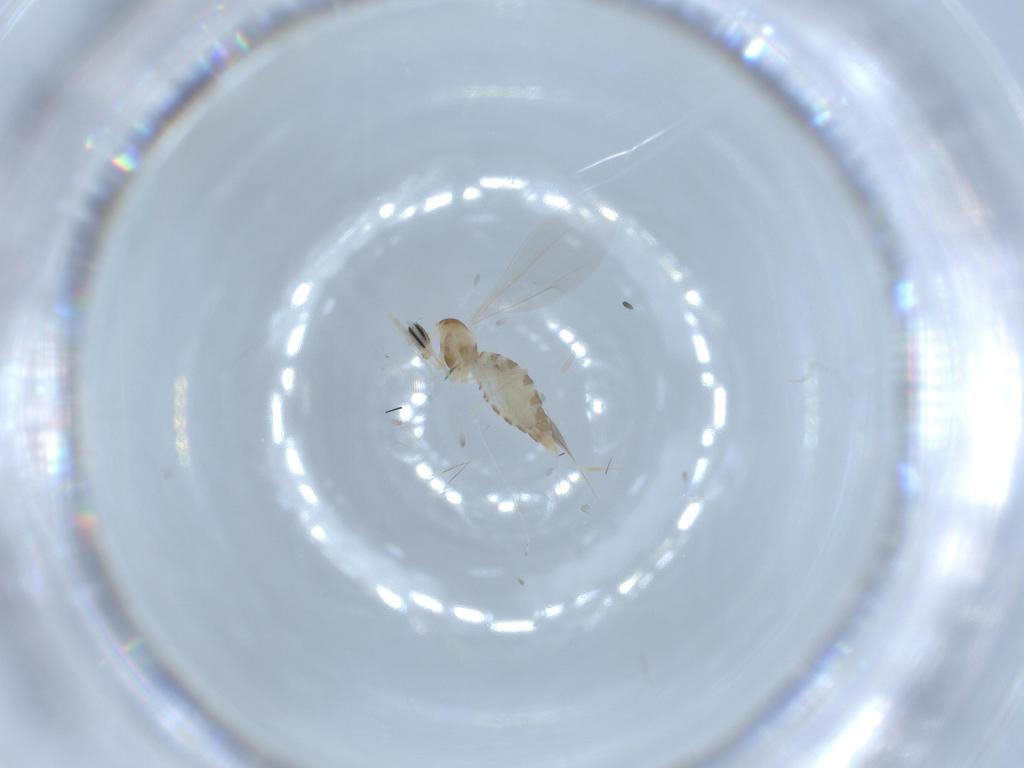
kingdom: Animalia
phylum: Arthropoda
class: Insecta
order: Diptera
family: Cecidomyiidae
